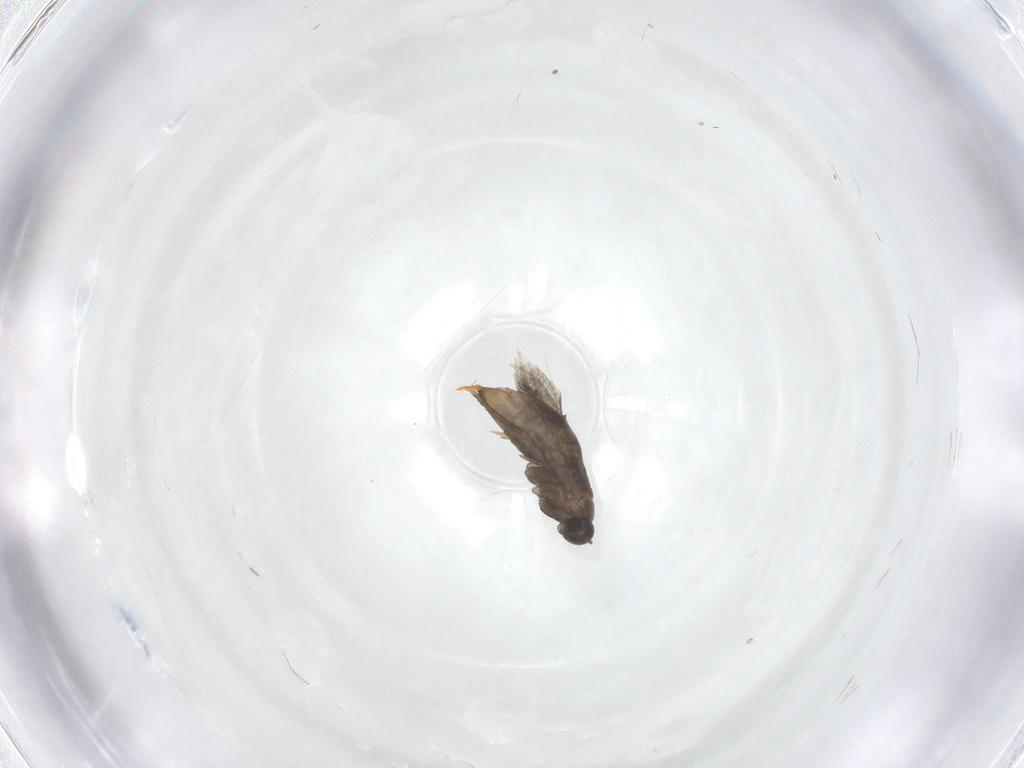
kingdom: Animalia
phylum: Arthropoda
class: Insecta
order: Lepidoptera
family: Heliozelidae
